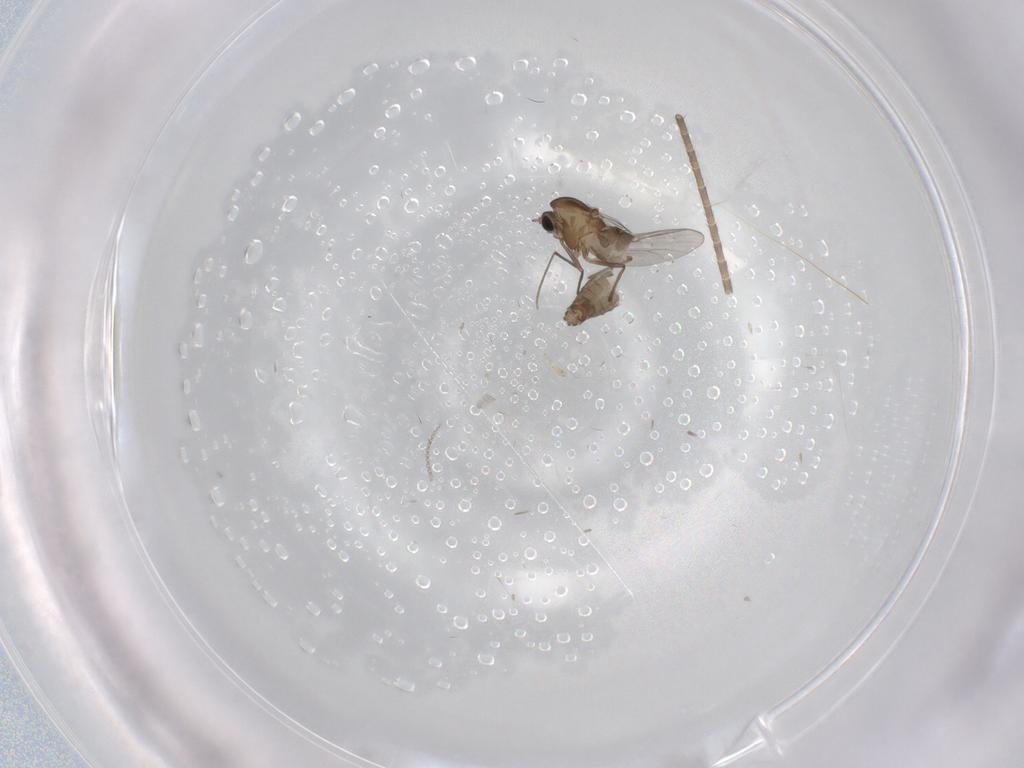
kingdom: Animalia
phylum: Arthropoda
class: Insecta
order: Diptera
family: Chironomidae
